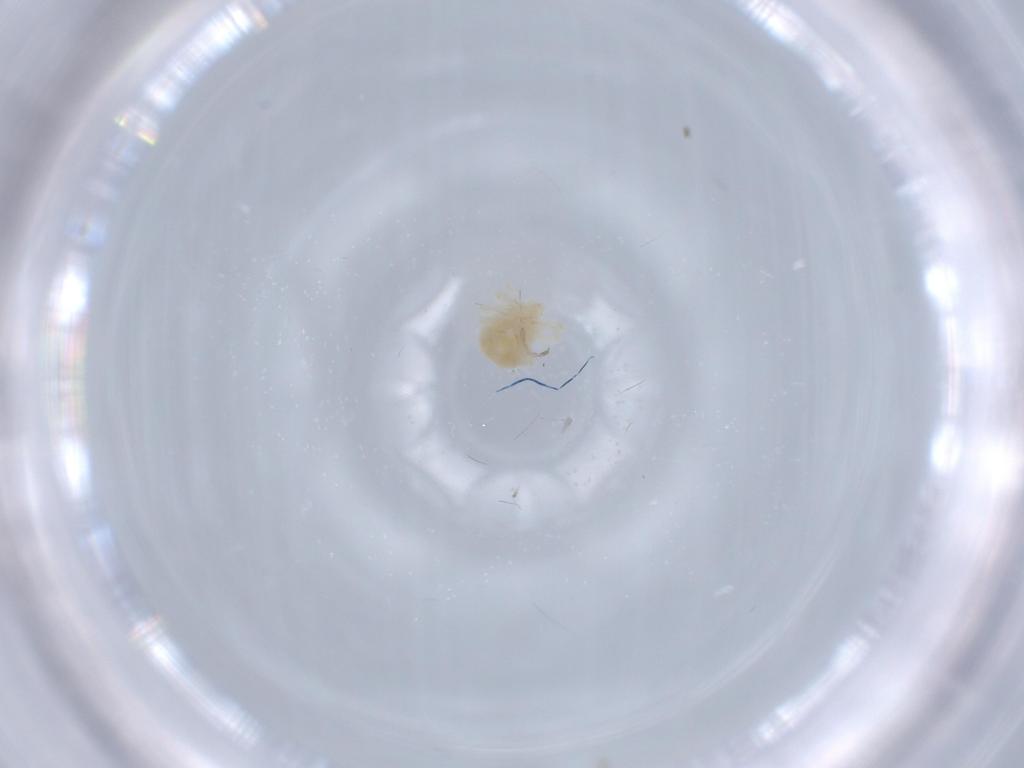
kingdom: Animalia
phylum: Arthropoda
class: Arachnida
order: Trombidiformes
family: Anystidae
